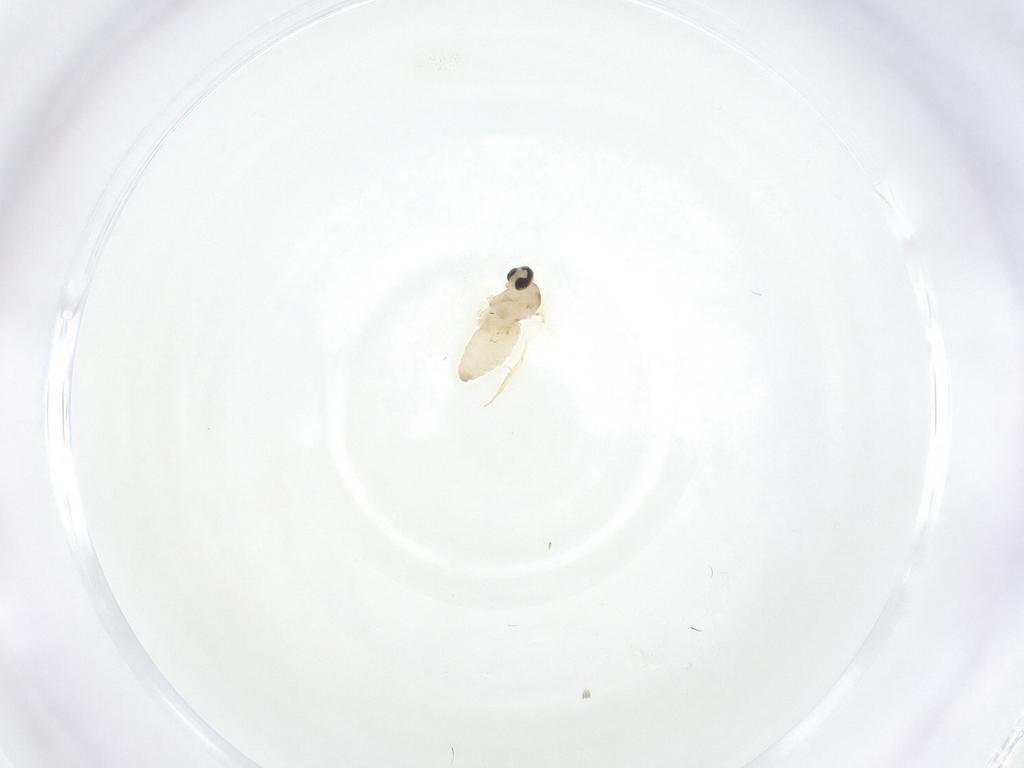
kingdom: Animalia
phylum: Arthropoda
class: Insecta
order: Diptera
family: Cecidomyiidae
